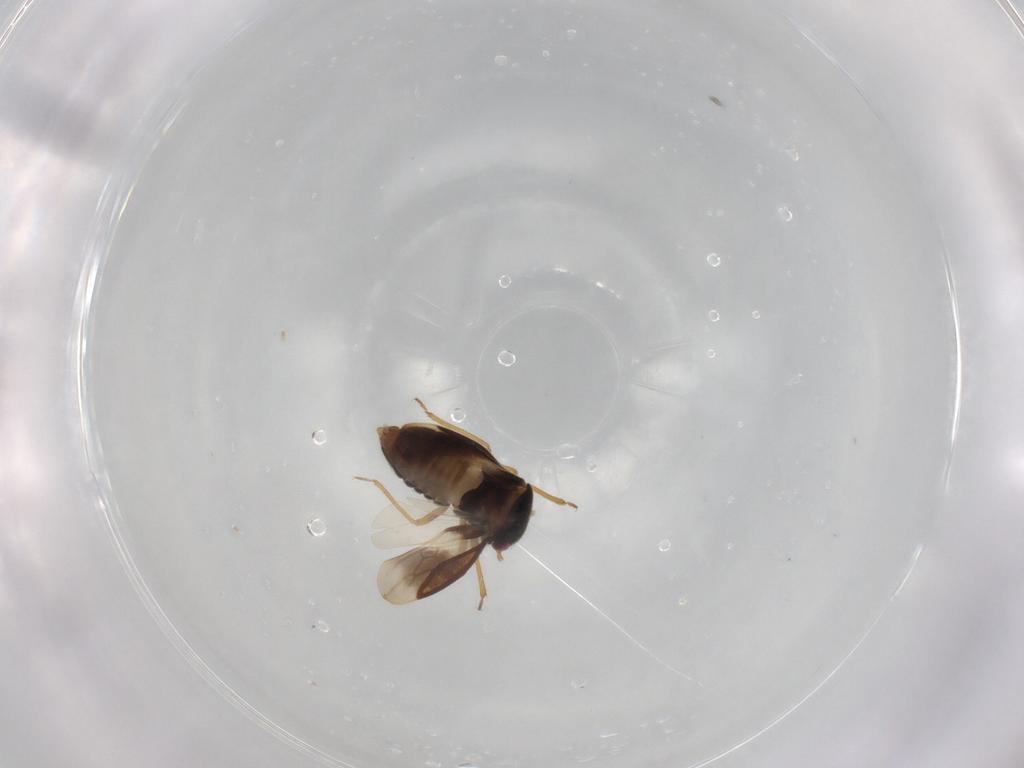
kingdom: Animalia
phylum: Arthropoda
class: Insecta
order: Hemiptera
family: Schizopteridae
